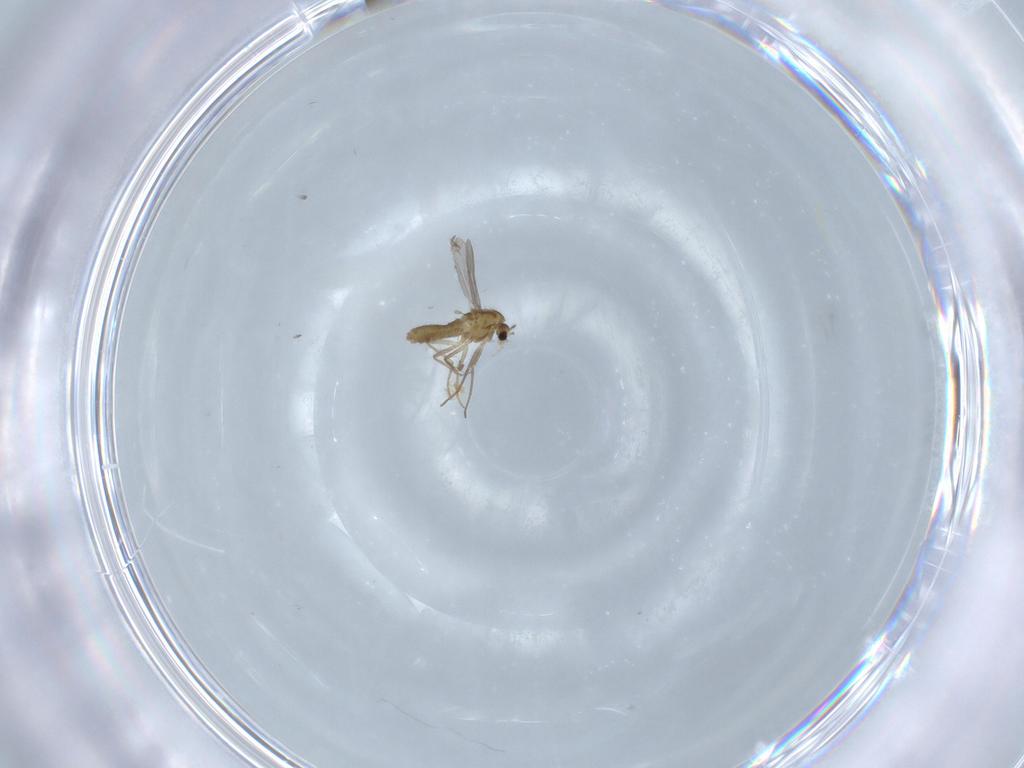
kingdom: Animalia
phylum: Arthropoda
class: Insecta
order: Diptera
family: Chironomidae
